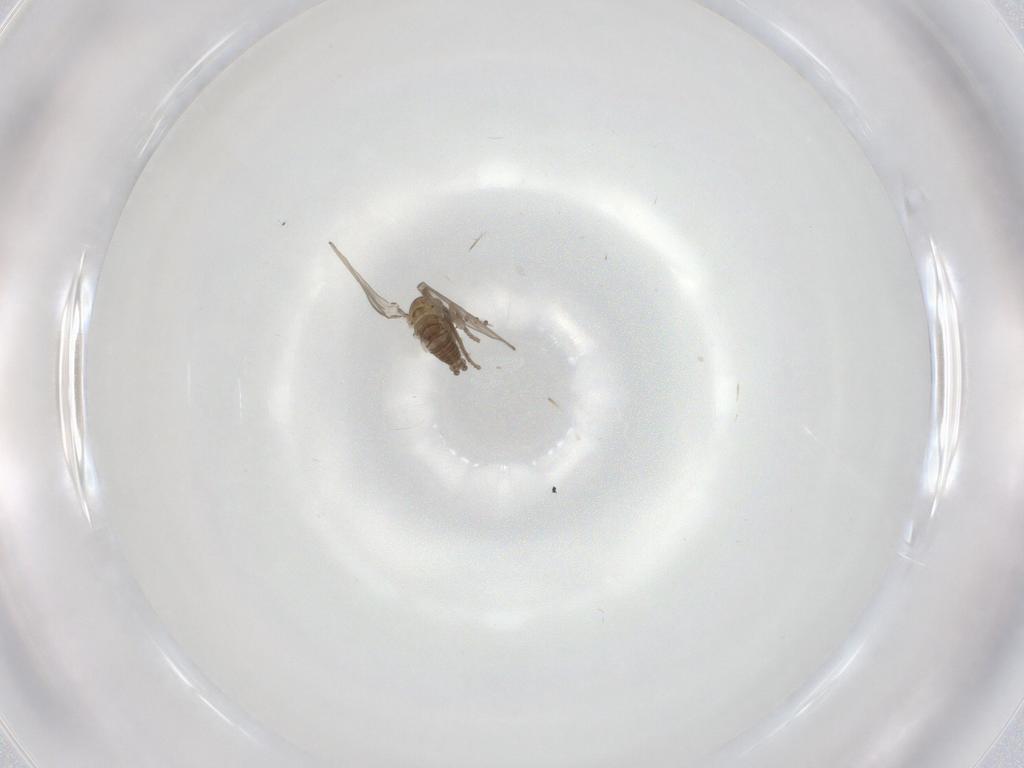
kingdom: Animalia
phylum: Arthropoda
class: Insecta
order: Diptera
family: Psychodidae
